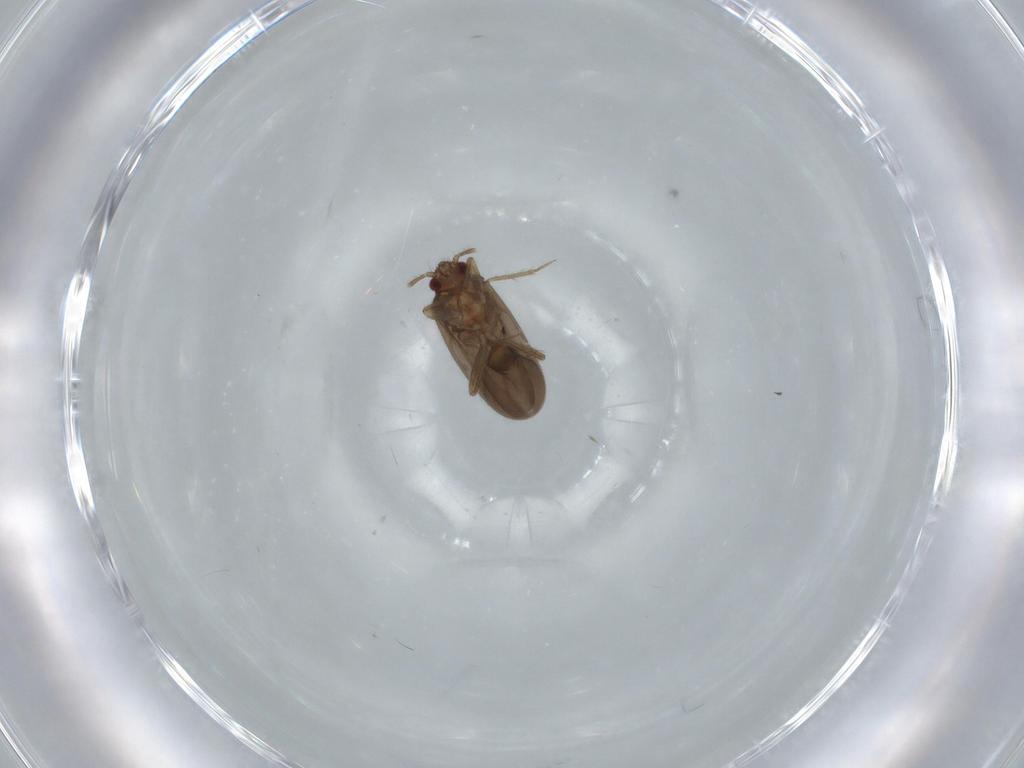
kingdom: Animalia
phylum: Arthropoda
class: Insecta
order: Hemiptera
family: Ceratocombidae
